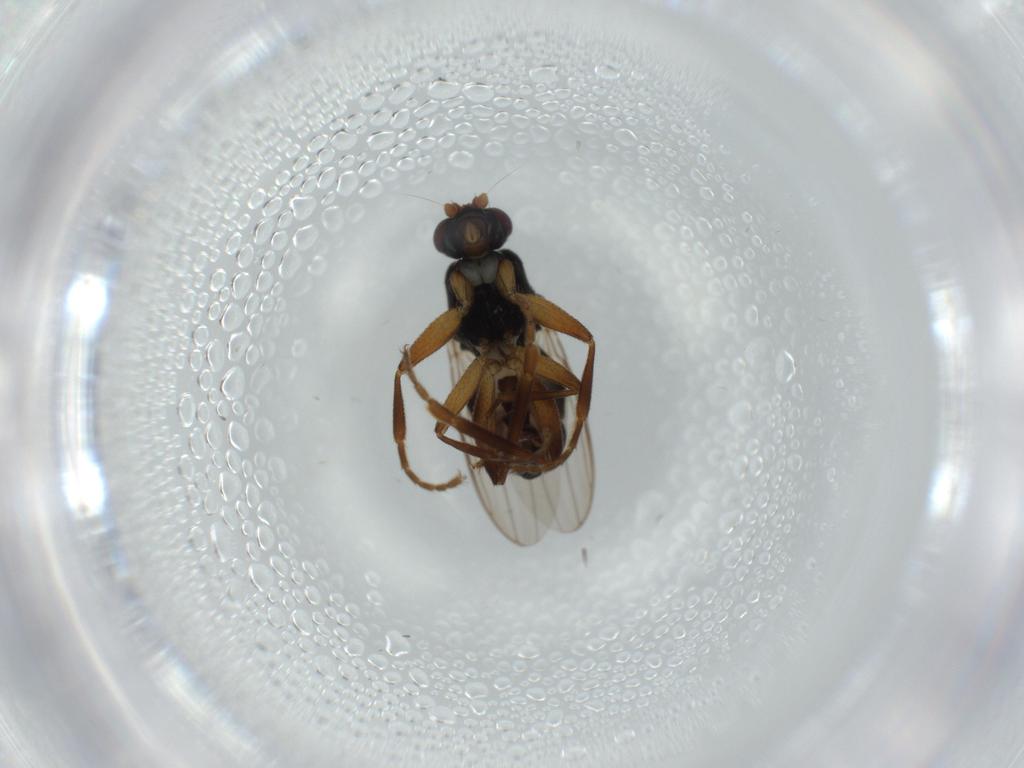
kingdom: Animalia
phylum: Arthropoda
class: Insecta
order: Diptera
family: Sphaeroceridae
